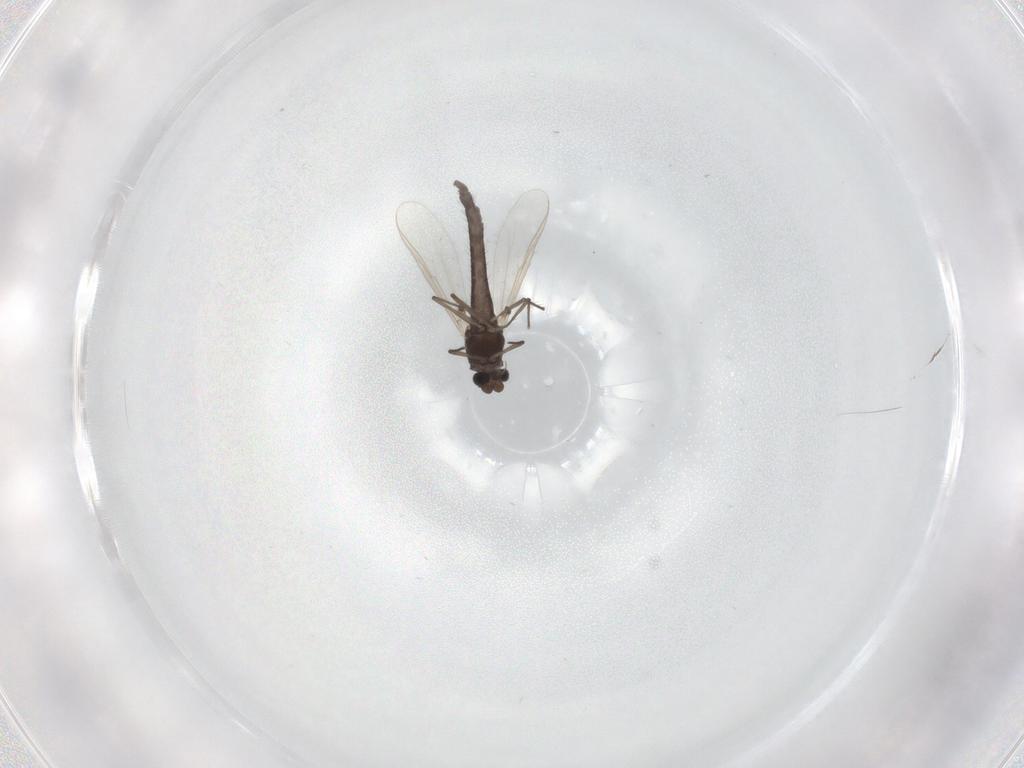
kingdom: Animalia
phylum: Arthropoda
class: Insecta
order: Diptera
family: Chironomidae
